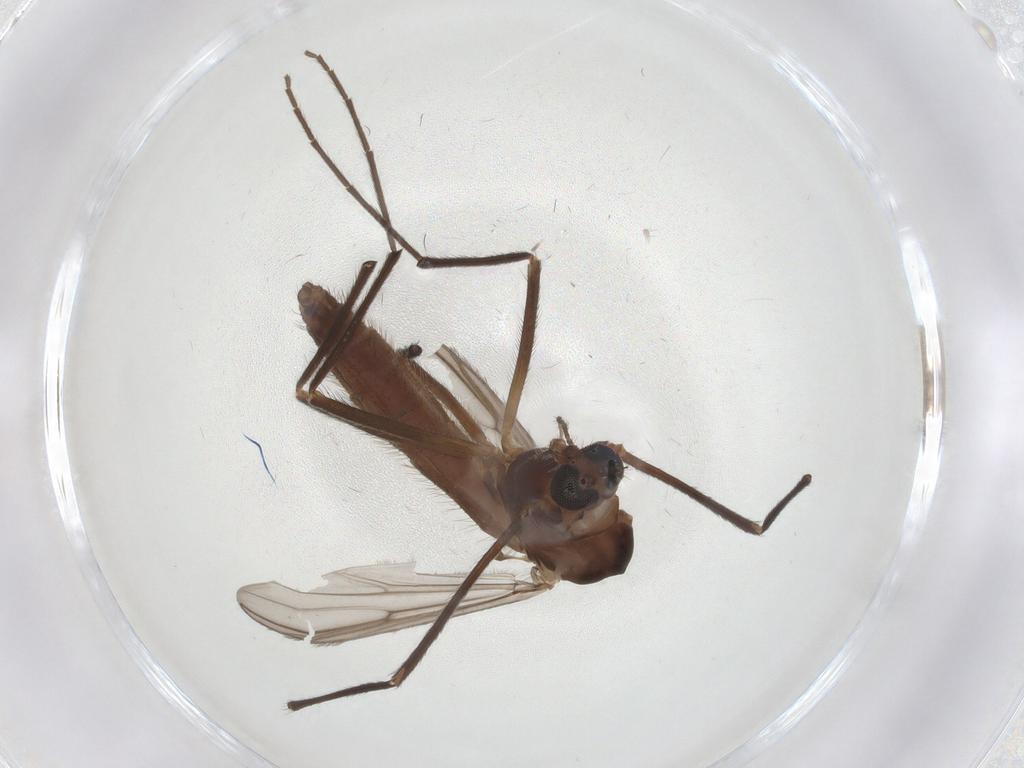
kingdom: Animalia
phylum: Arthropoda
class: Insecta
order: Diptera
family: Chironomidae
